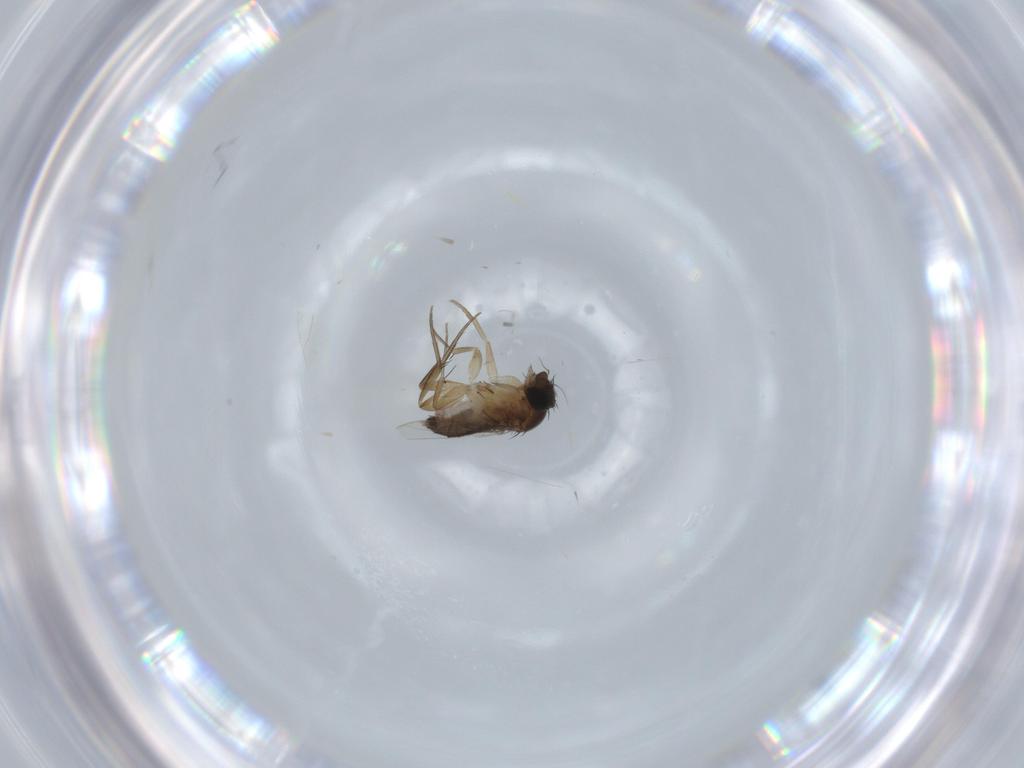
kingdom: Animalia
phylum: Arthropoda
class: Insecta
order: Diptera
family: Phoridae
